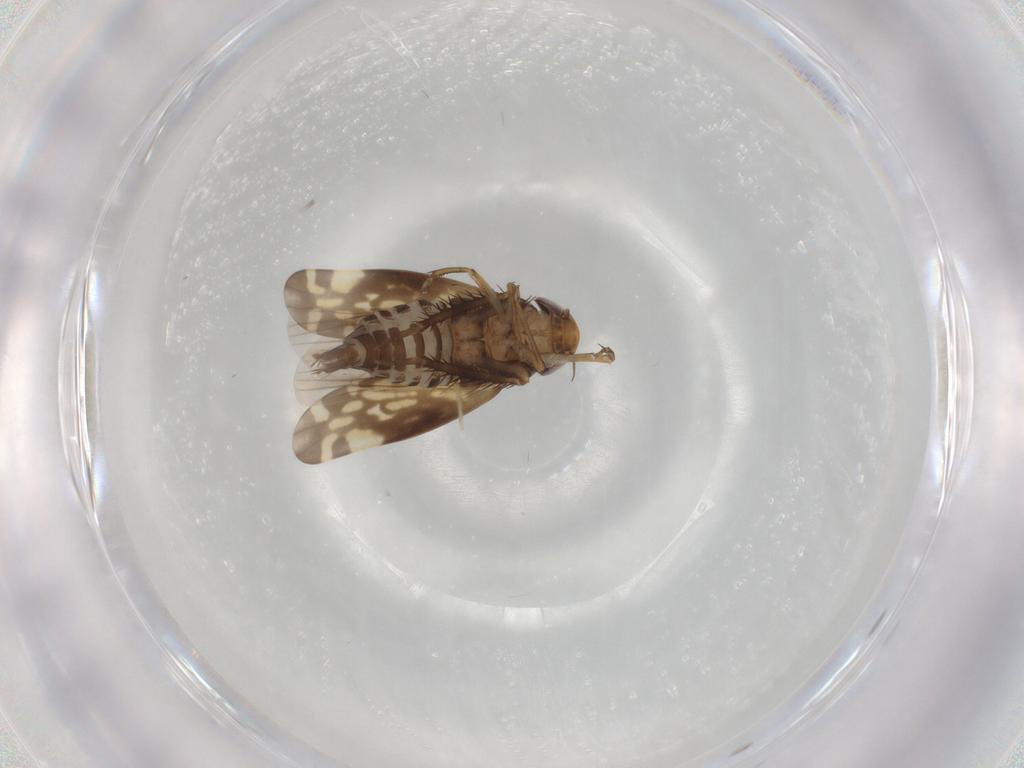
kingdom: Animalia
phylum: Arthropoda
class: Insecta
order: Hemiptera
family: Cicadellidae
